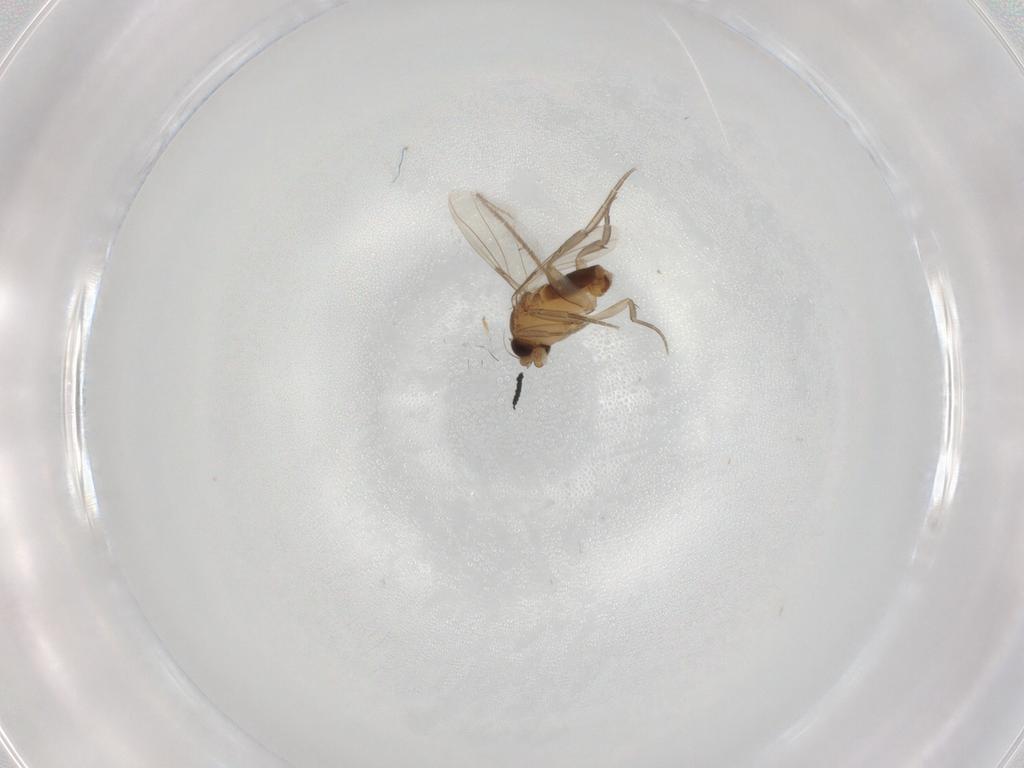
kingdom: Animalia
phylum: Arthropoda
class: Insecta
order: Diptera
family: Phoridae
